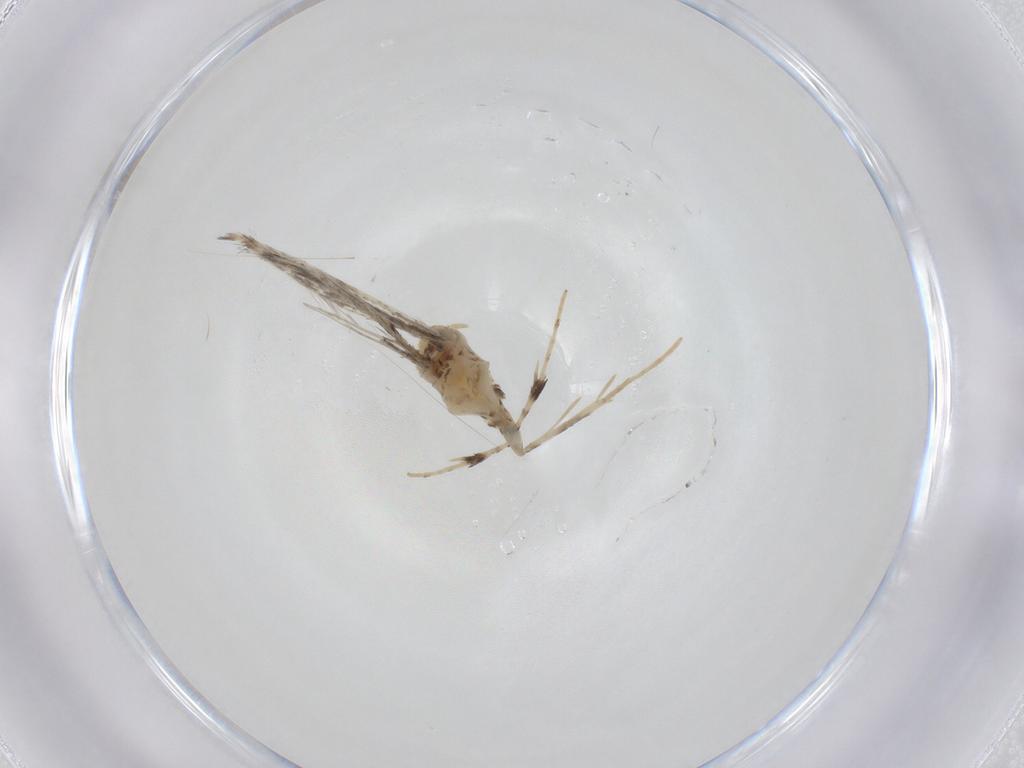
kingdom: Animalia
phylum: Arthropoda
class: Insecta
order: Lepidoptera
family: Gracillariidae
